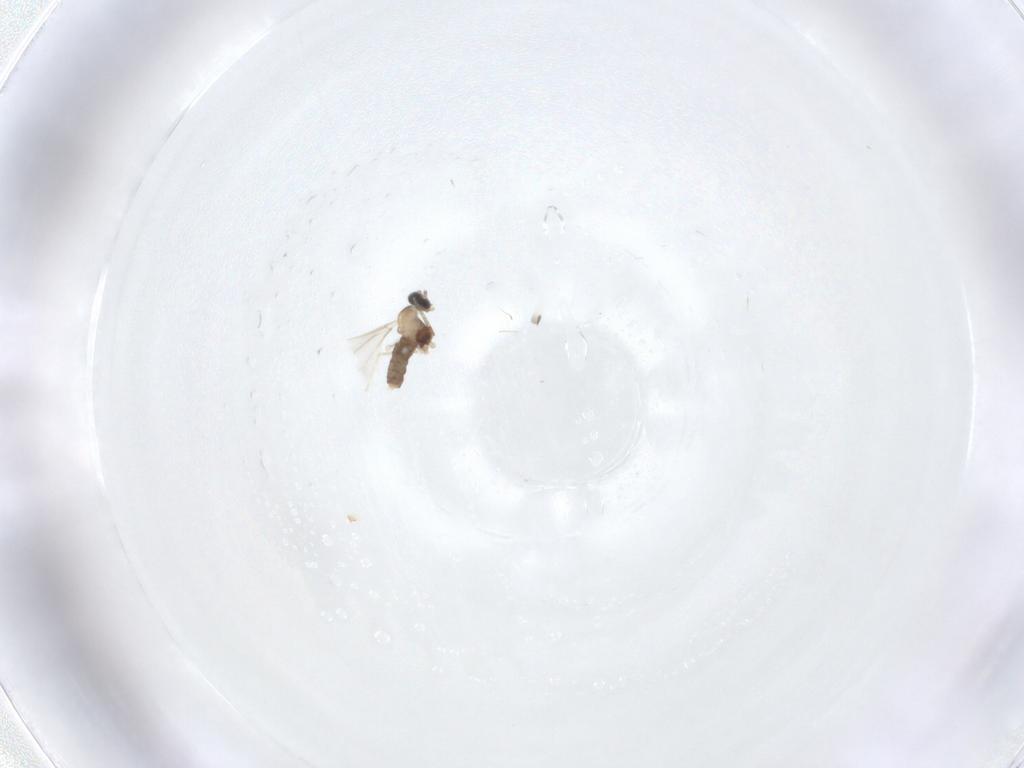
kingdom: Animalia
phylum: Arthropoda
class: Insecta
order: Diptera
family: Cecidomyiidae
